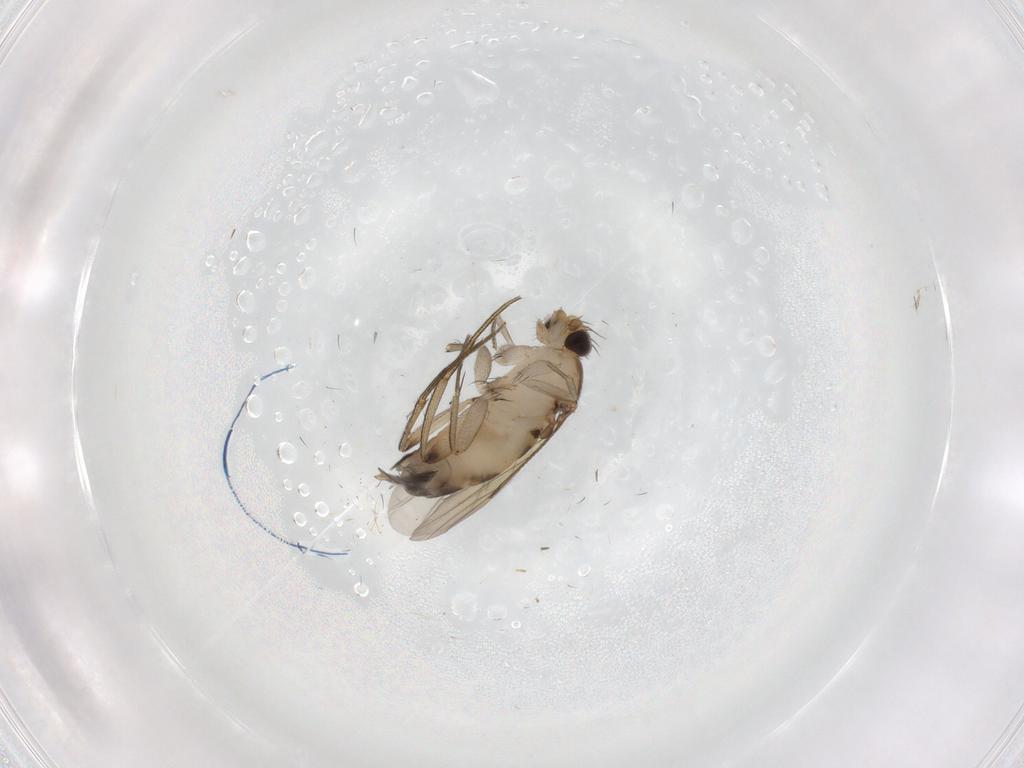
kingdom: Animalia
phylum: Arthropoda
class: Insecta
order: Diptera
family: Phoridae
